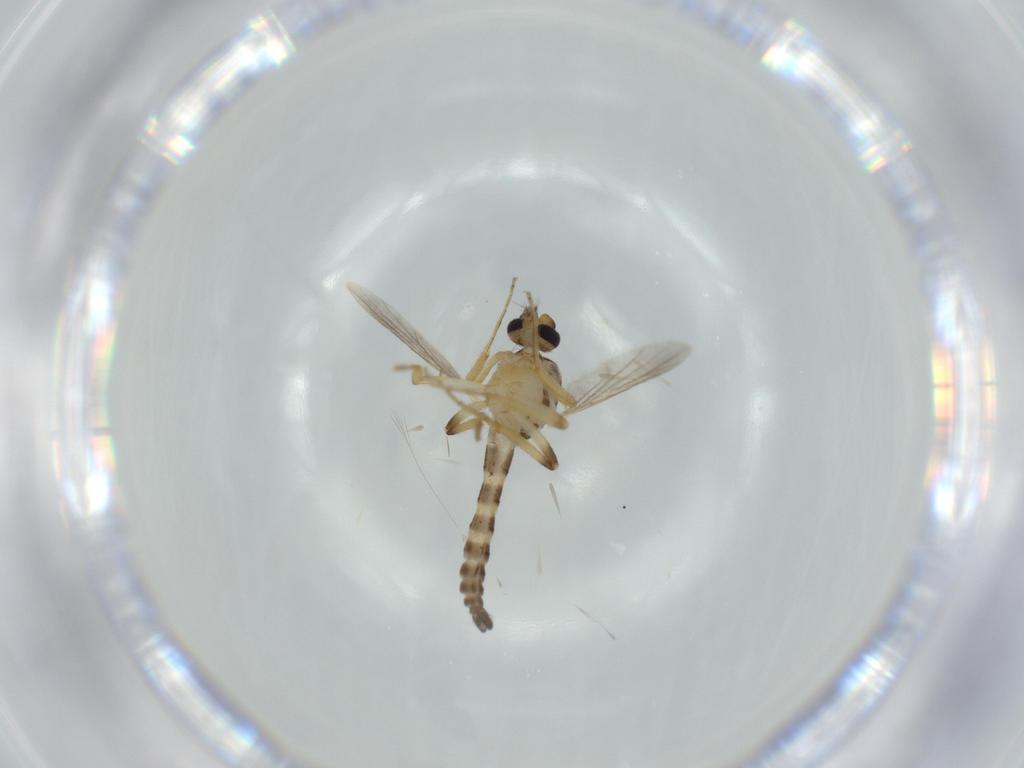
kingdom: Animalia
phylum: Arthropoda
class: Insecta
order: Diptera
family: Ceratopogonidae
